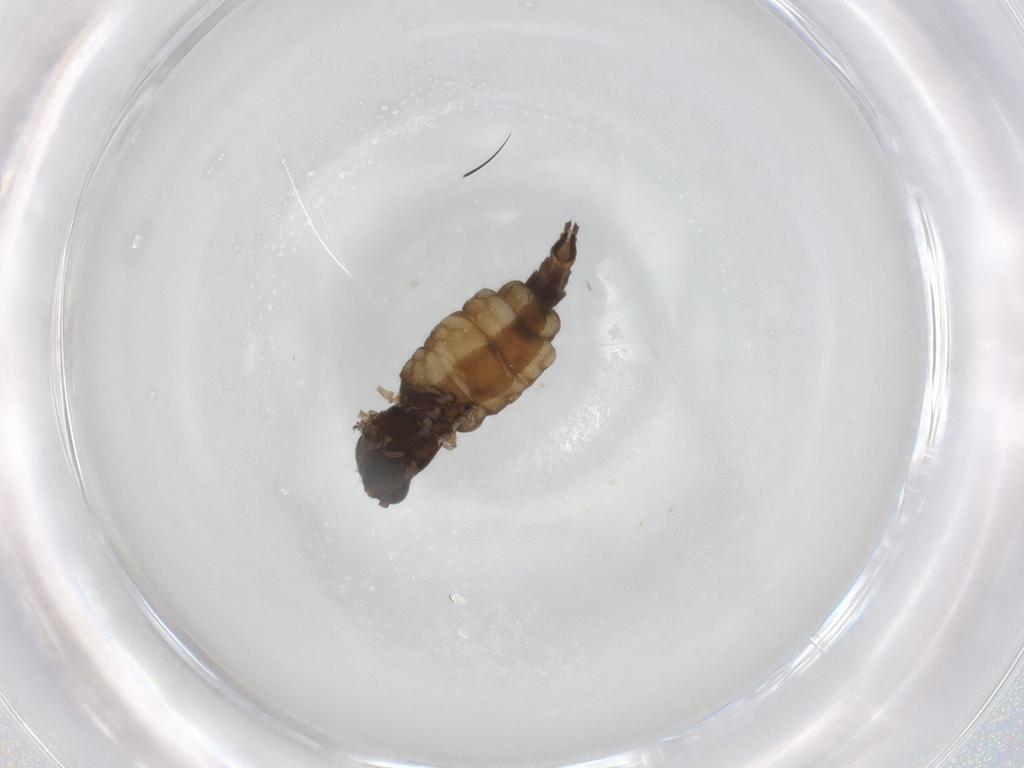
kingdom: Animalia
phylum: Arthropoda
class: Insecta
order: Diptera
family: Sciaridae
